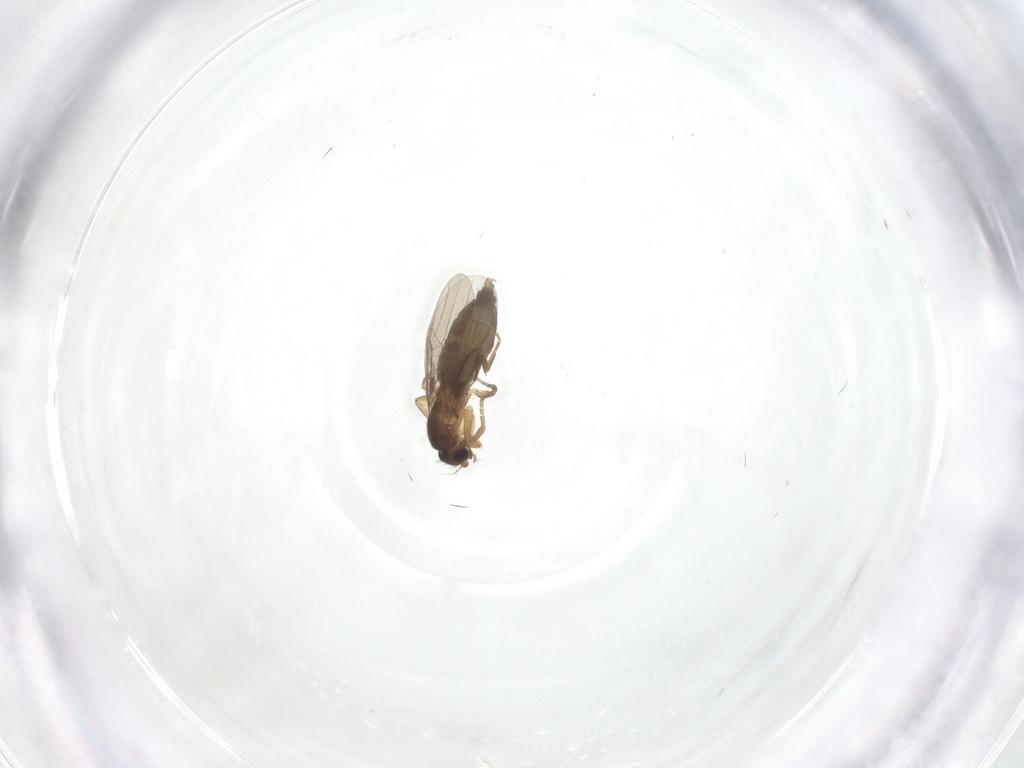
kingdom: Animalia
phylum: Arthropoda
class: Insecta
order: Diptera
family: Phoridae
